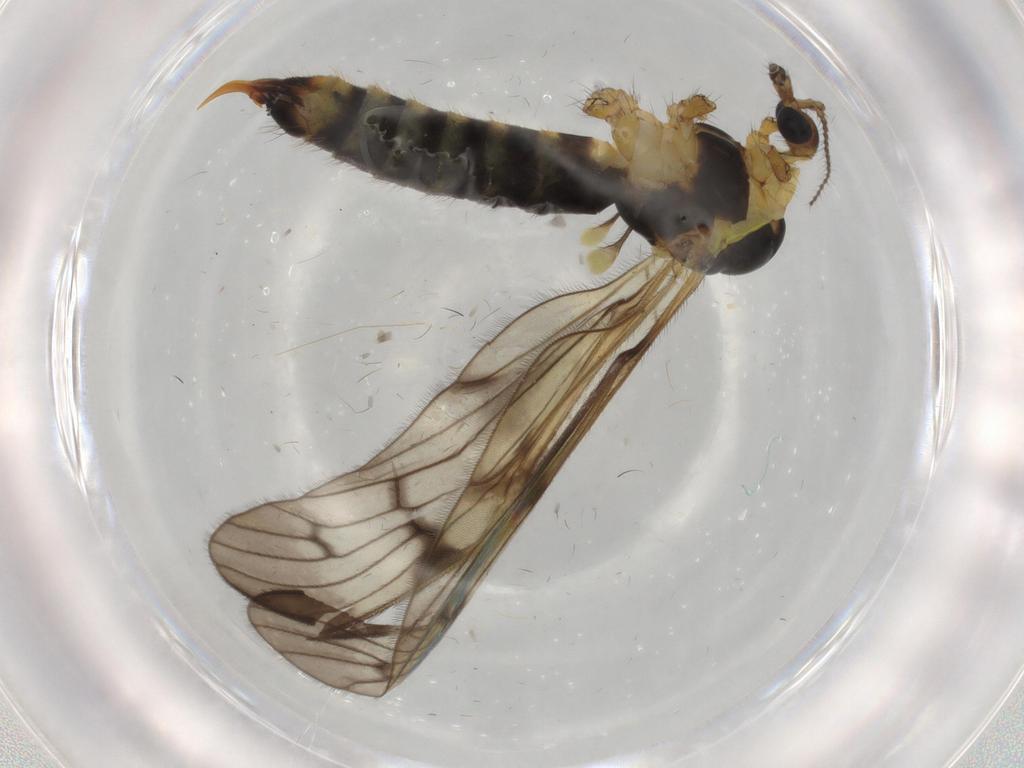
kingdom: Animalia
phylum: Arthropoda
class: Insecta
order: Diptera
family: Limoniidae
